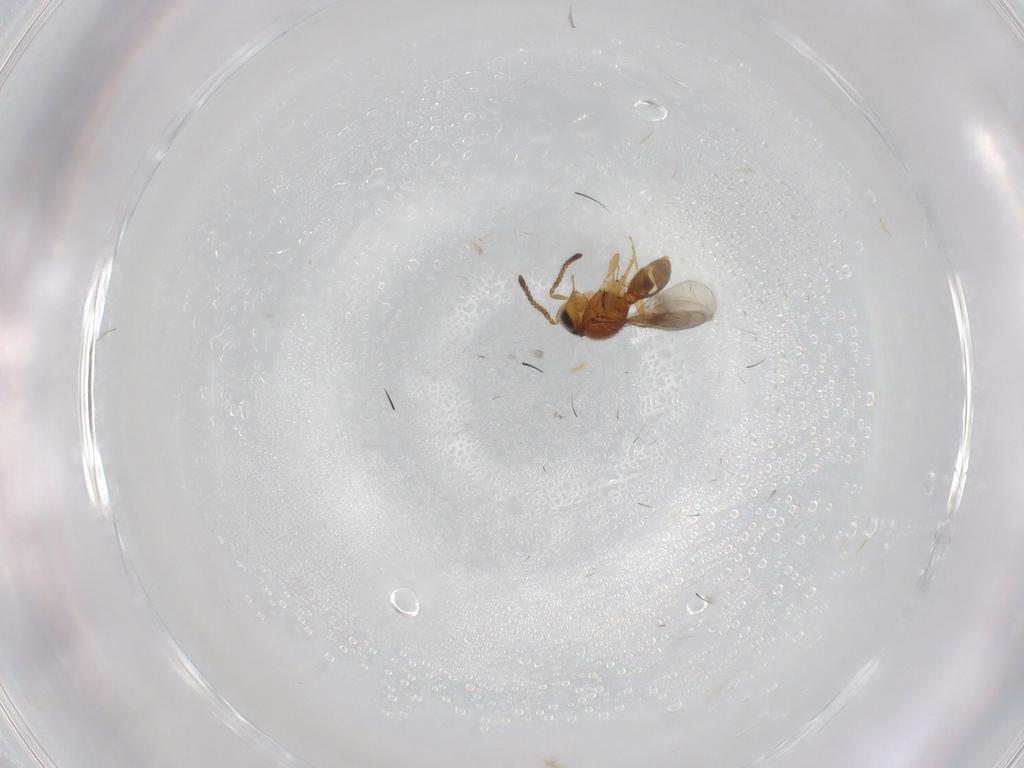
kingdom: Animalia
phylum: Arthropoda
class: Insecta
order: Hymenoptera
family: Scelionidae
